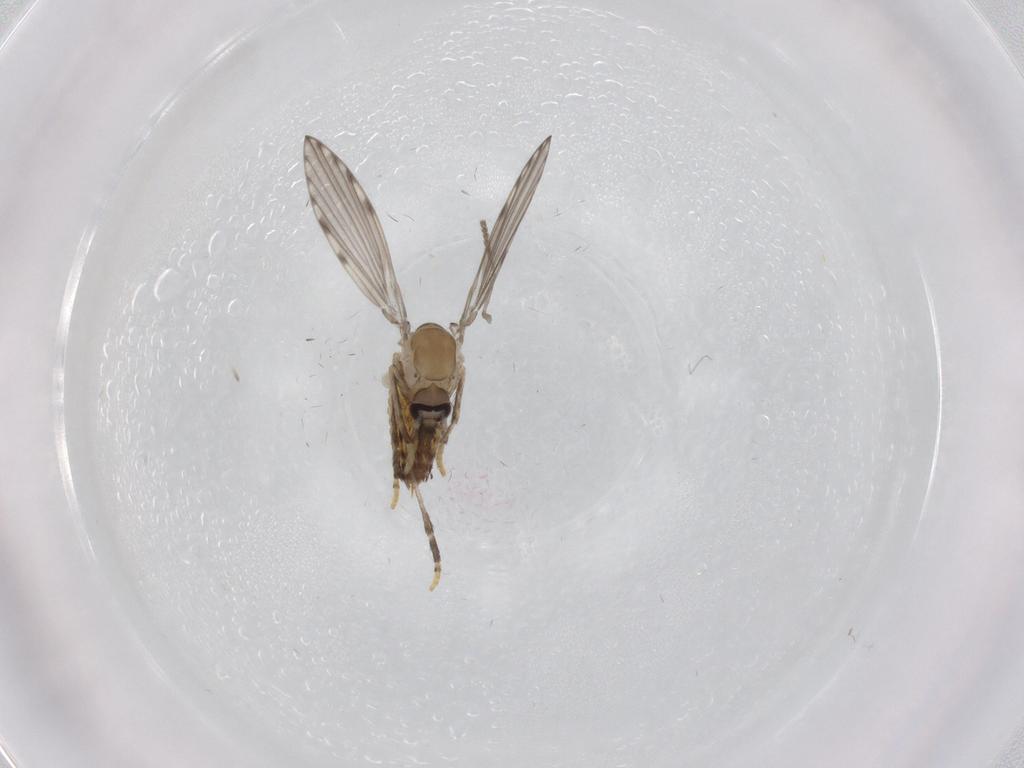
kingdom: Animalia
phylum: Arthropoda
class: Insecta
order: Diptera
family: Psychodidae
